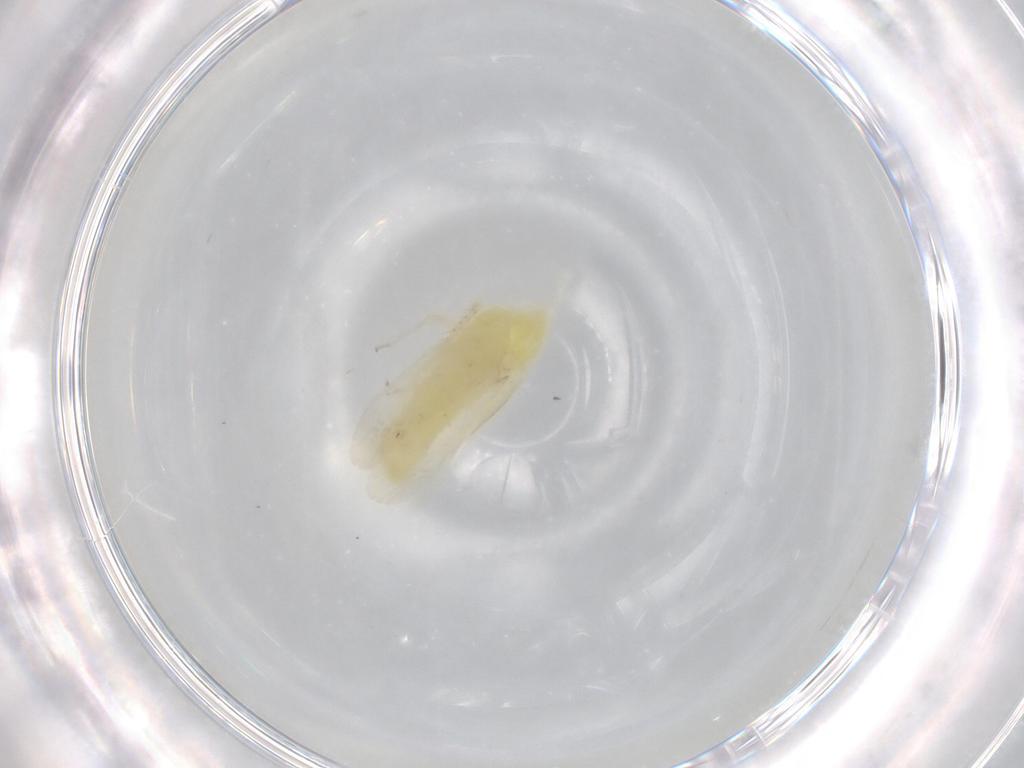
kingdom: Animalia
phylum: Arthropoda
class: Insecta
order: Hemiptera
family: Cicadellidae
